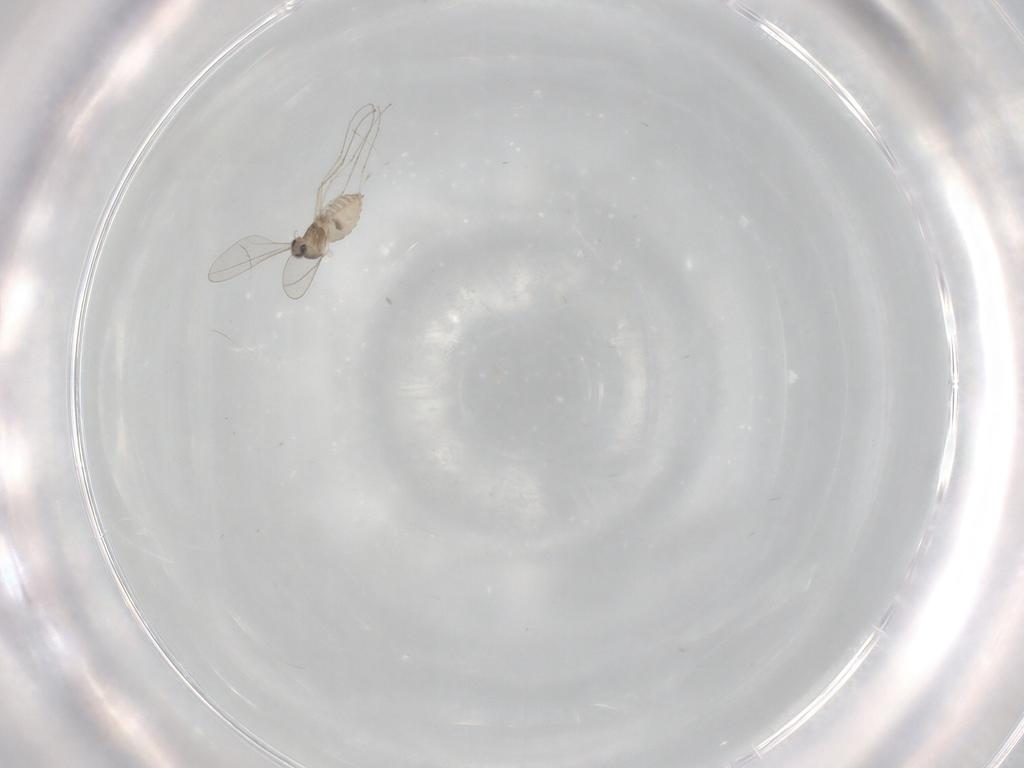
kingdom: Animalia
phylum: Arthropoda
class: Insecta
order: Diptera
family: Cecidomyiidae
